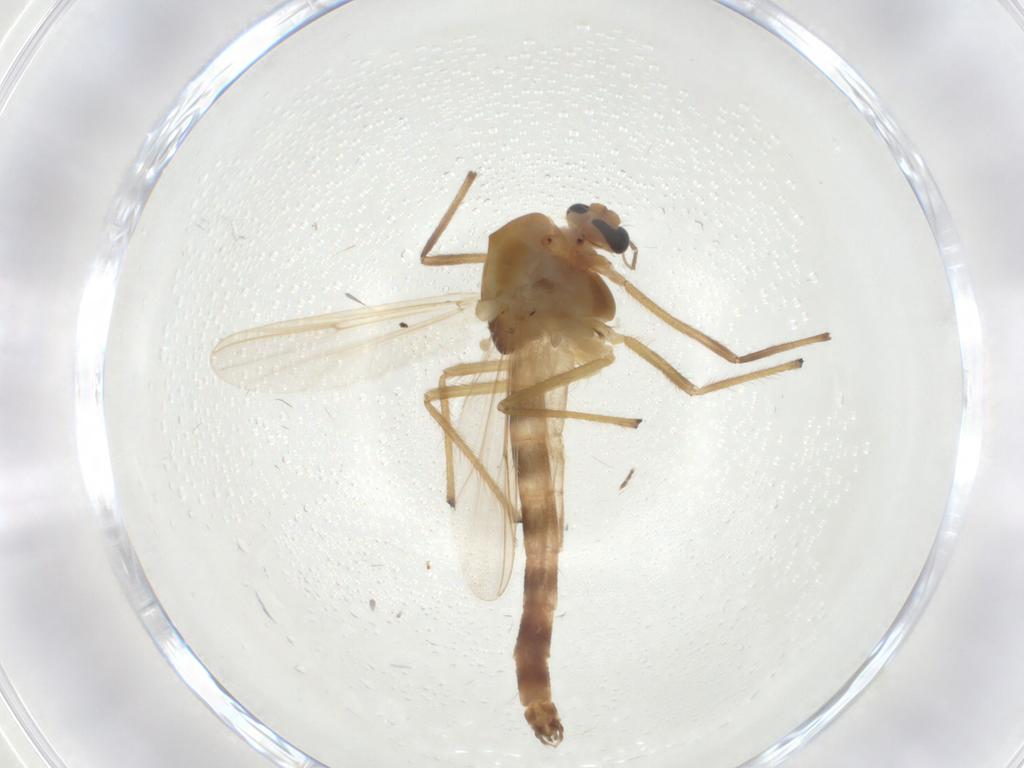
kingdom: Animalia
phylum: Arthropoda
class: Insecta
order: Diptera
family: Chironomidae
